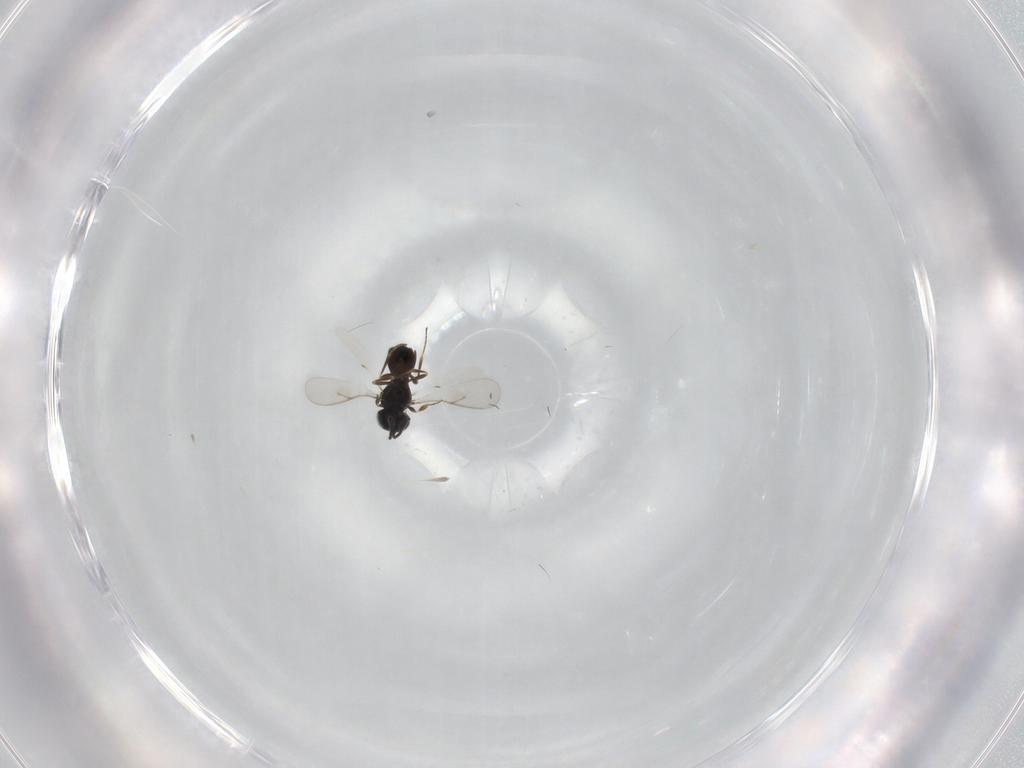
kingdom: Animalia
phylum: Arthropoda
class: Insecta
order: Hymenoptera
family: Scelionidae
